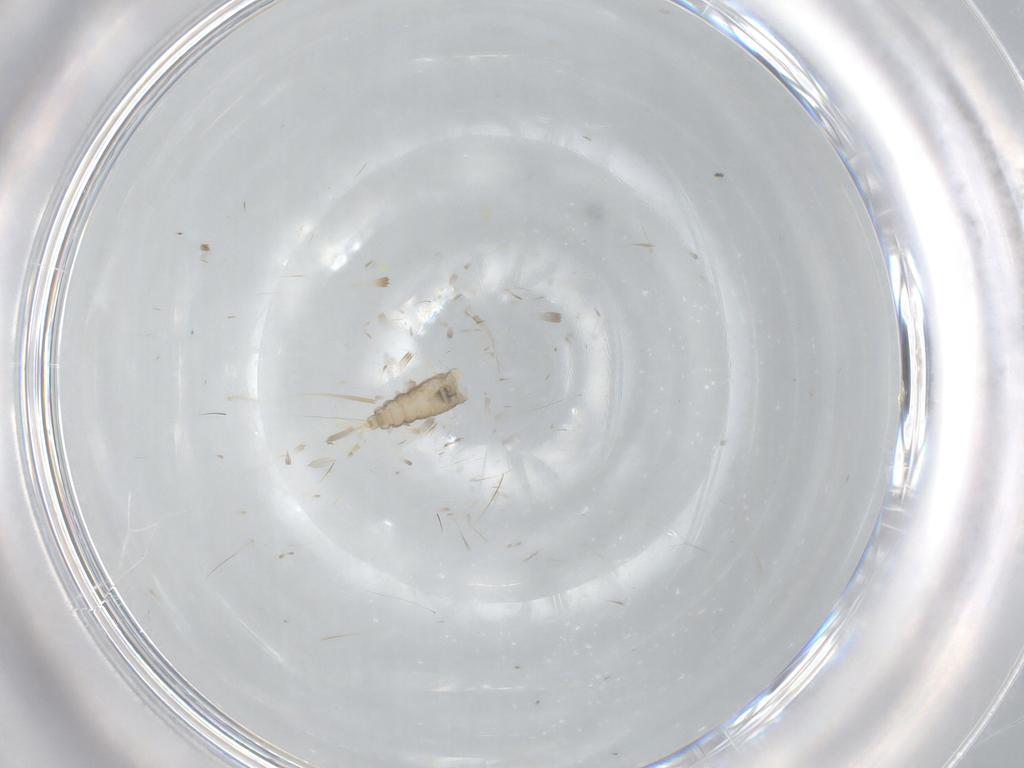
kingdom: Animalia
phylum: Arthropoda
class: Insecta
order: Diptera
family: Cecidomyiidae
